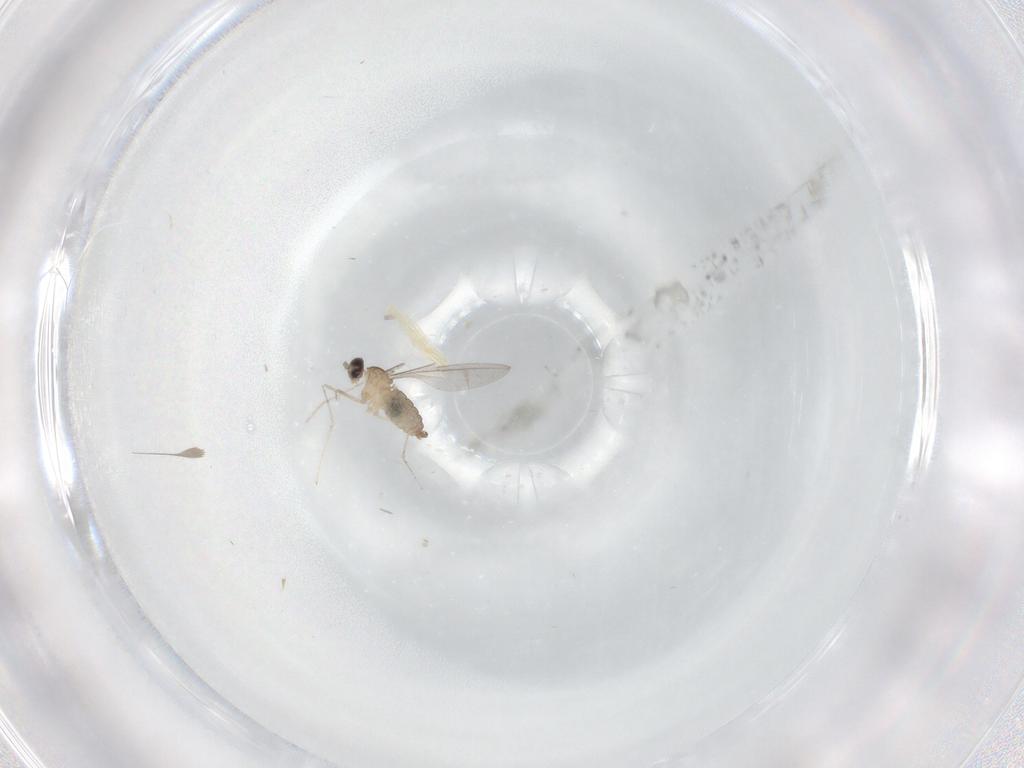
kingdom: Animalia
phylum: Arthropoda
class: Insecta
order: Diptera
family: Cecidomyiidae
